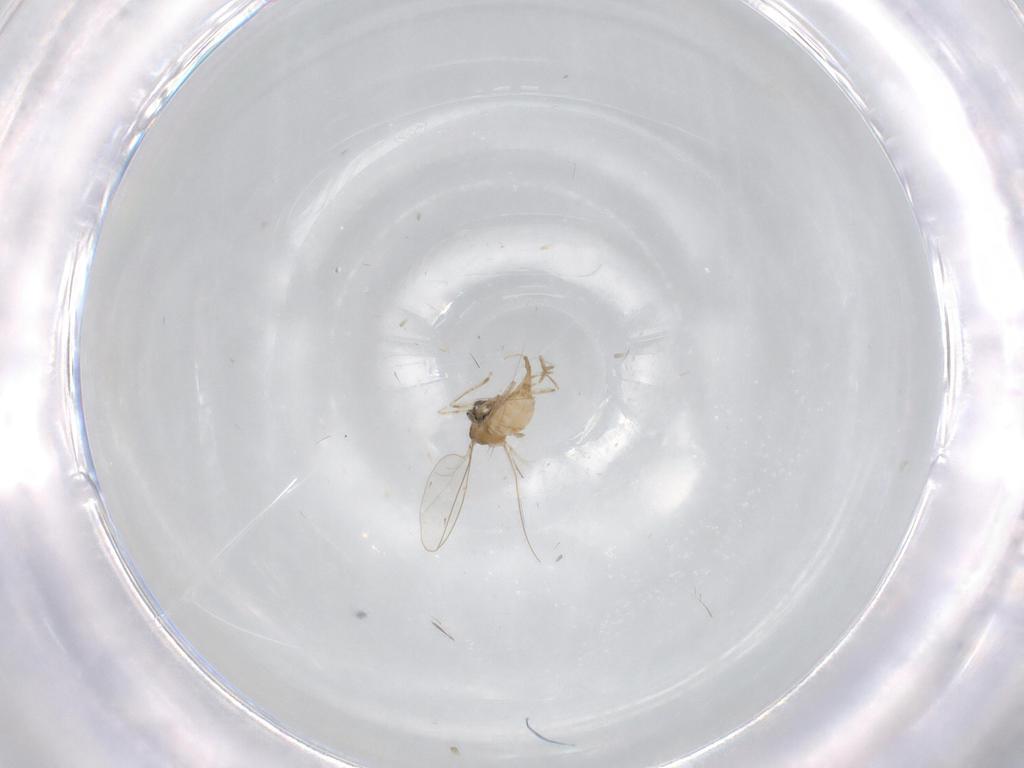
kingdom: Animalia
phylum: Arthropoda
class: Insecta
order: Diptera
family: Cecidomyiidae
